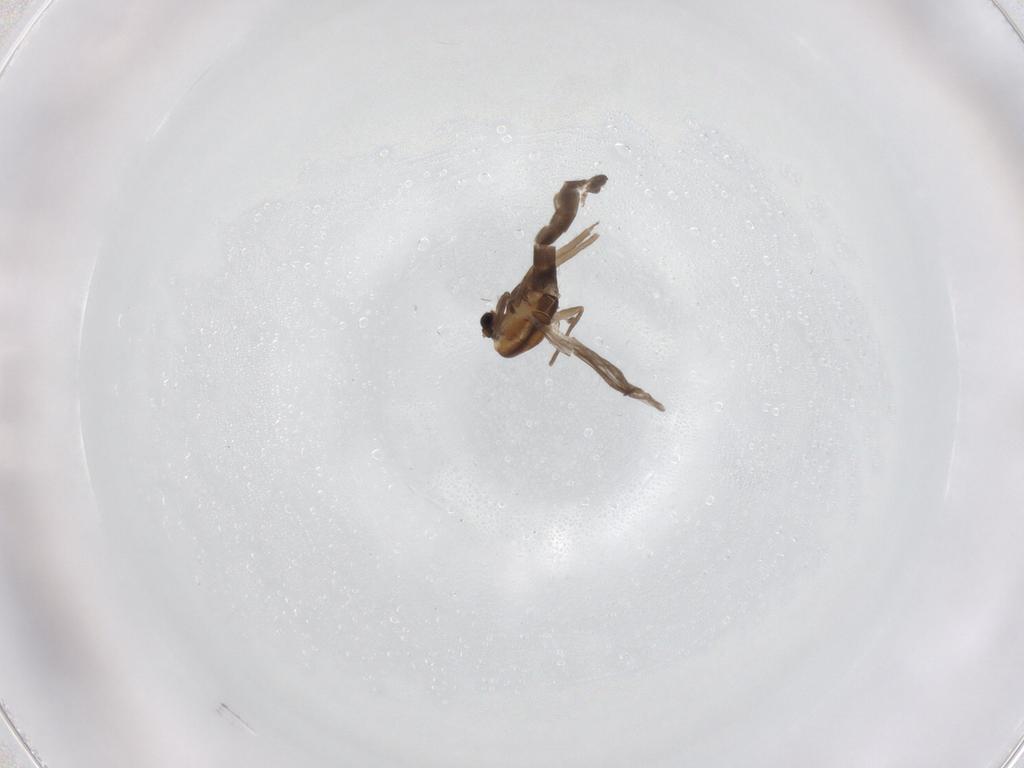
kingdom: Animalia
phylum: Arthropoda
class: Insecta
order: Diptera
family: Chironomidae
